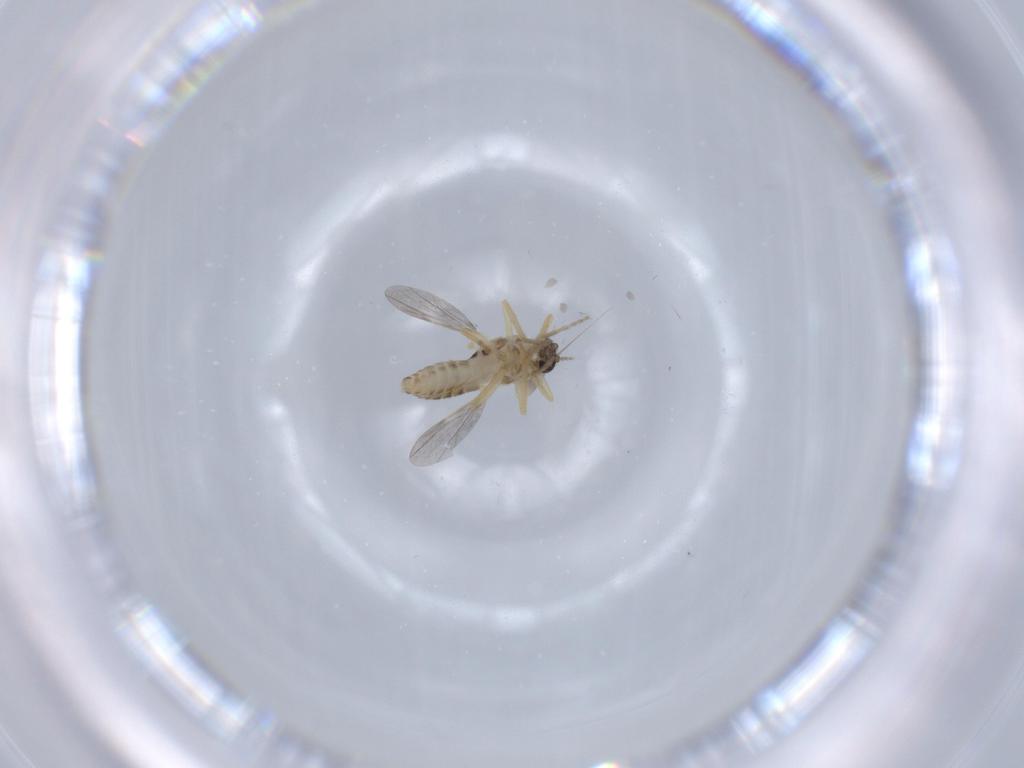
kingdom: Animalia
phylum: Arthropoda
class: Insecta
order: Diptera
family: Ceratopogonidae
